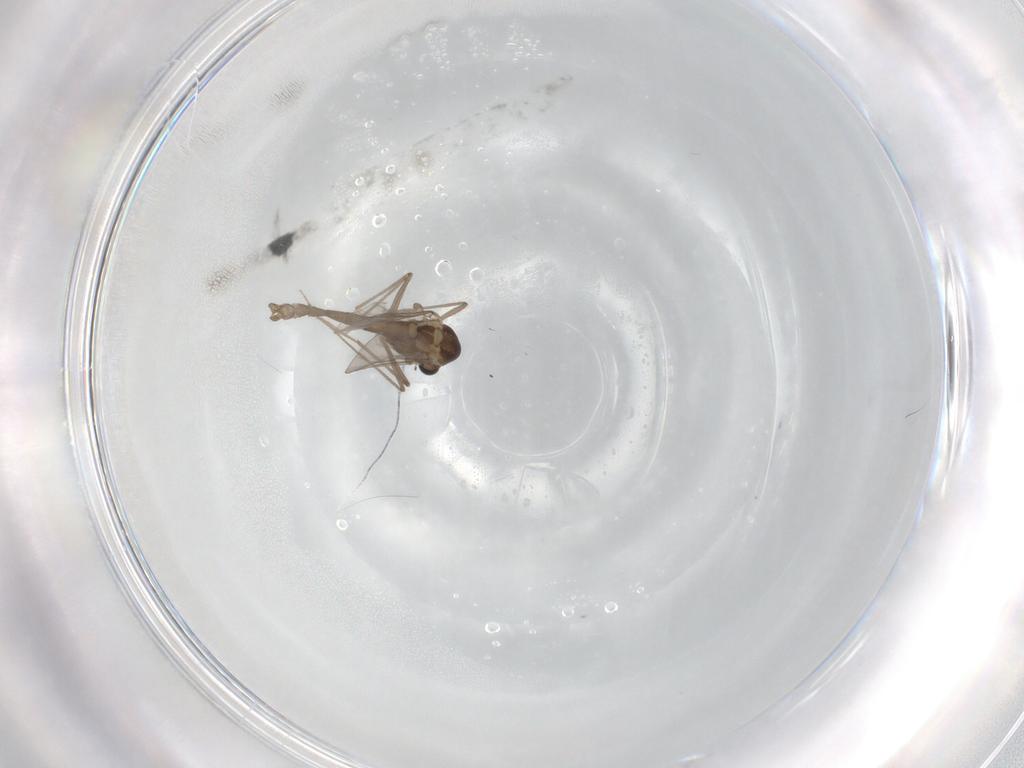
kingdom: Animalia
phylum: Arthropoda
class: Insecta
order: Diptera
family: Chironomidae
